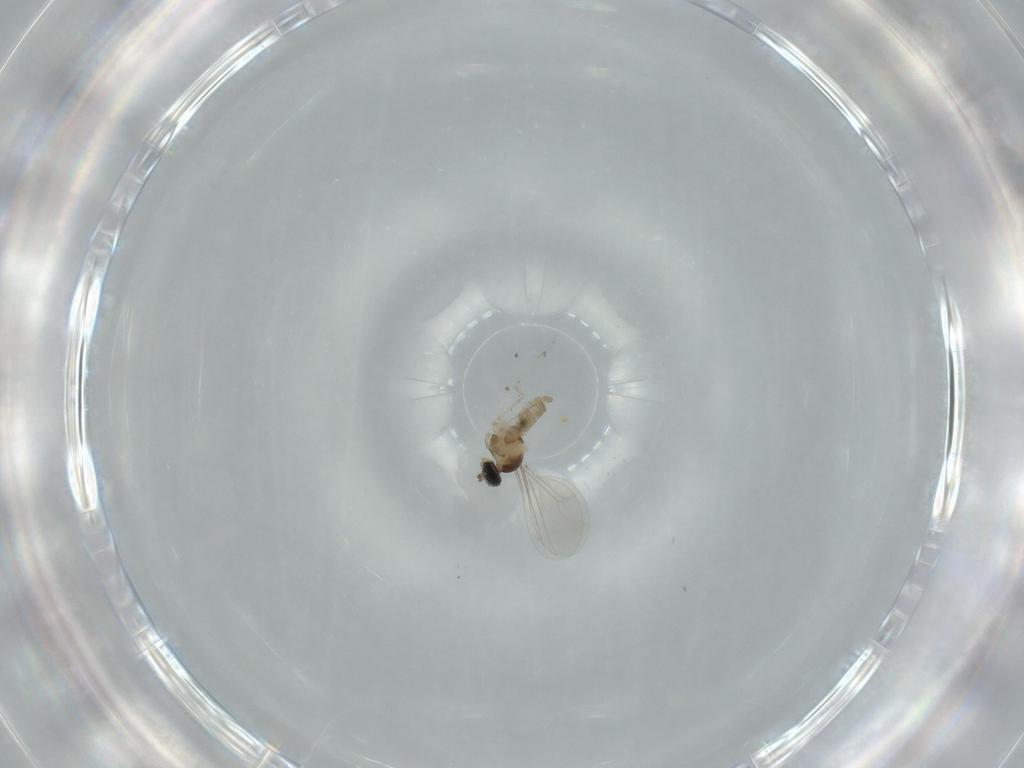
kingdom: Animalia
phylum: Arthropoda
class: Insecta
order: Diptera
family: Cecidomyiidae
